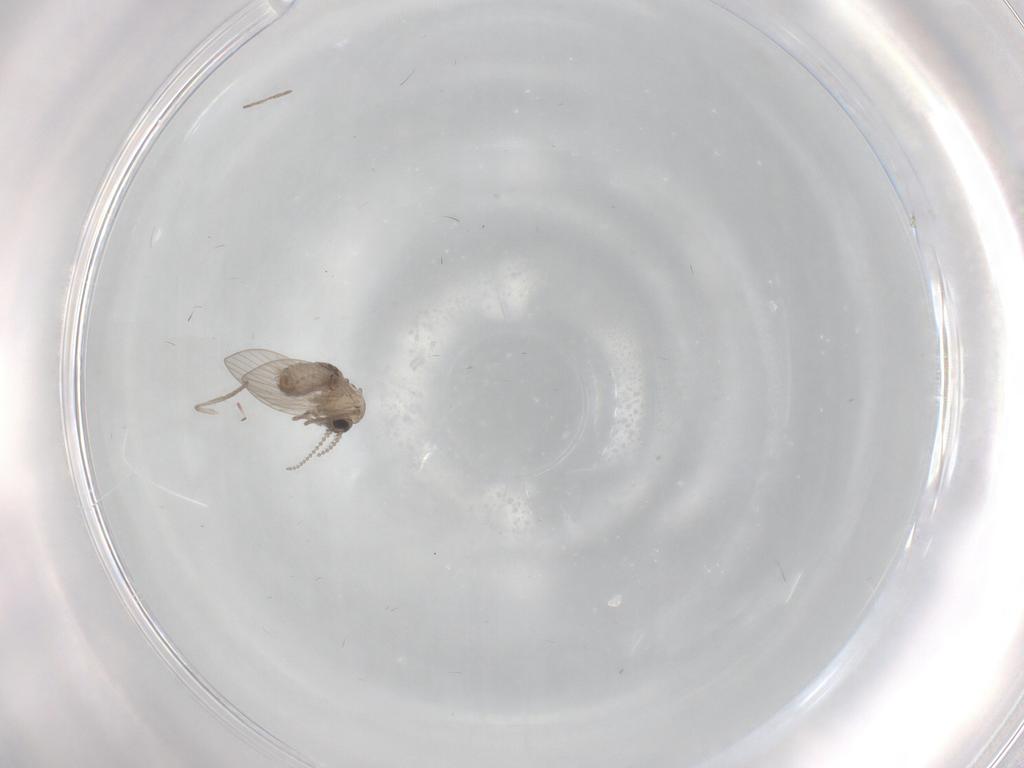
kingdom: Animalia
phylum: Arthropoda
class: Insecta
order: Diptera
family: Psychodidae
